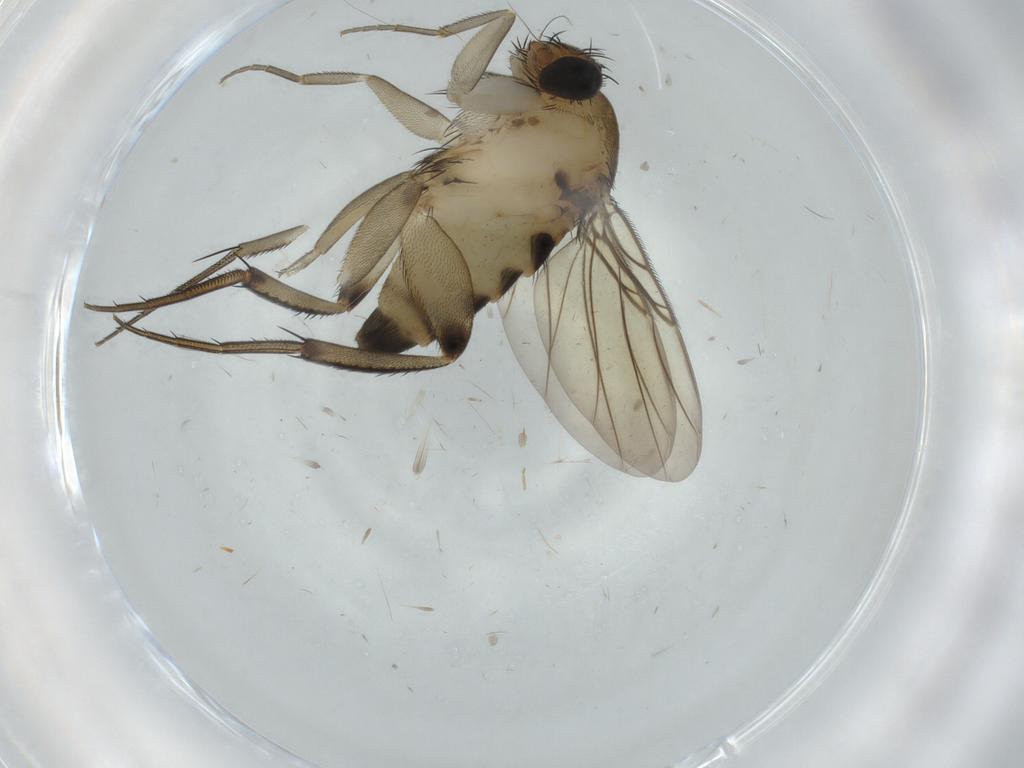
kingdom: Animalia
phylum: Arthropoda
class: Insecta
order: Diptera
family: Phoridae
